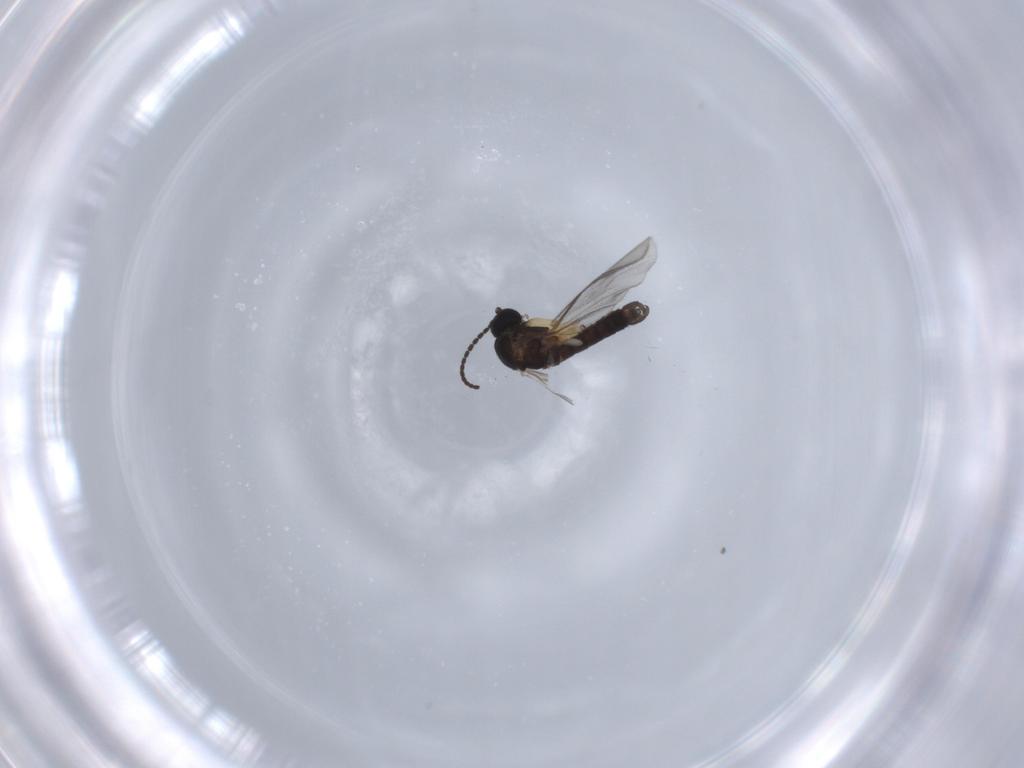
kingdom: Animalia
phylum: Arthropoda
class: Insecta
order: Diptera
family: Sciaridae
